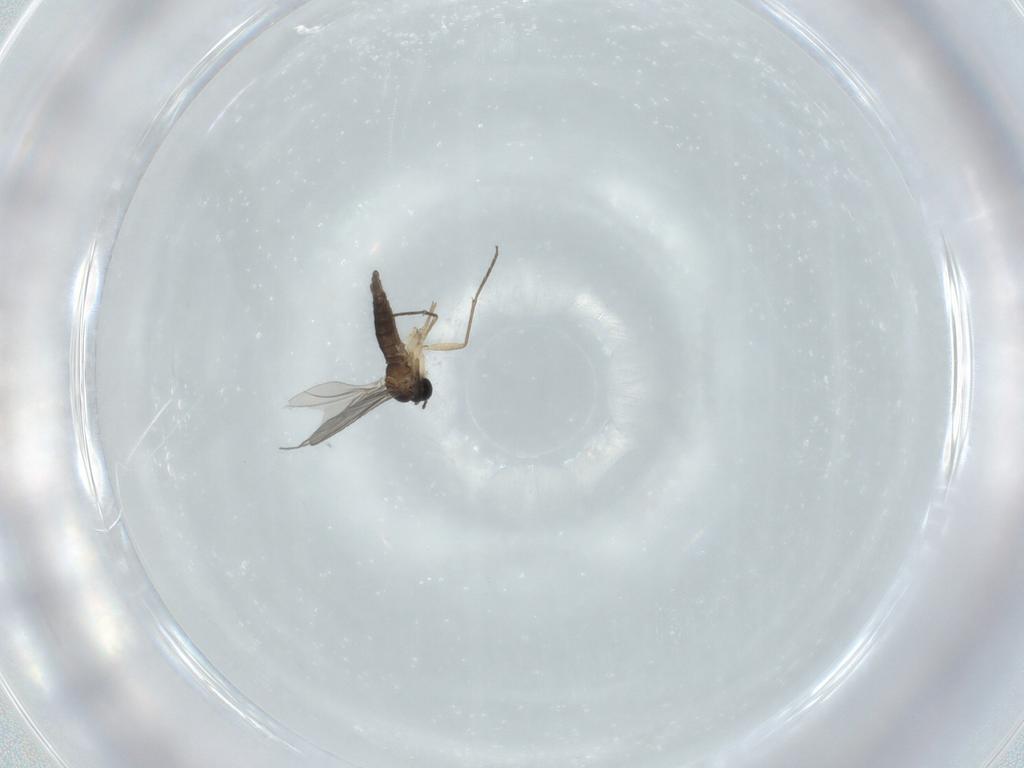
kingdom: Animalia
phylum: Arthropoda
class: Insecta
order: Diptera
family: Sciaridae
